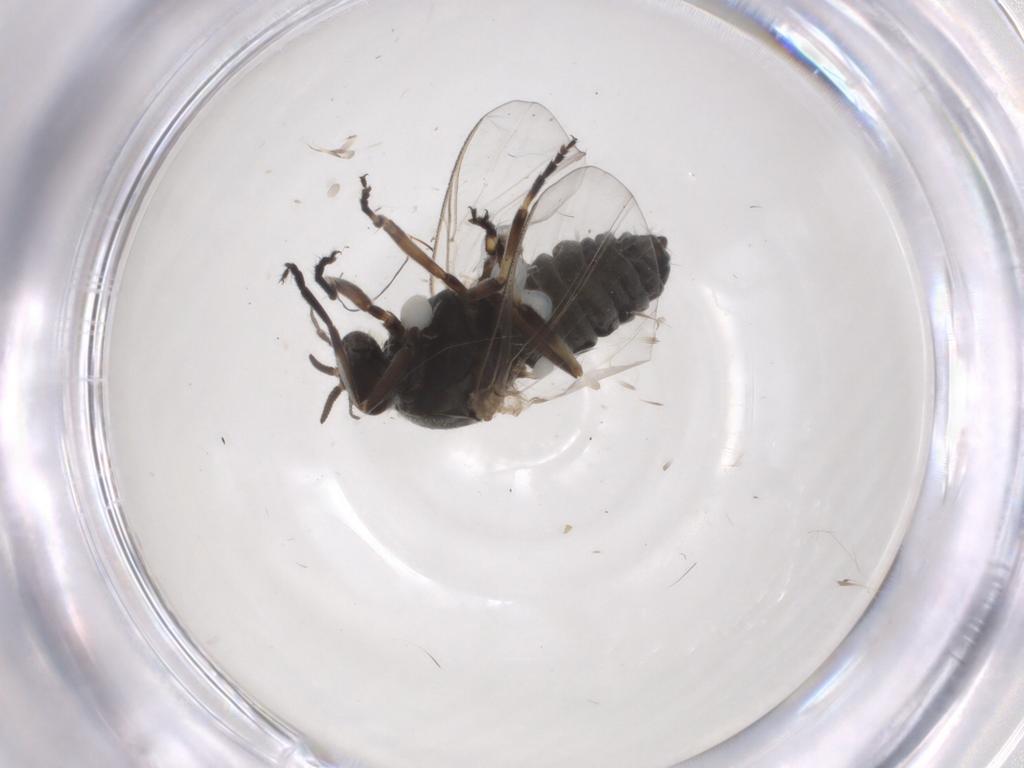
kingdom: Animalia
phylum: Arthropoda
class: Insecta
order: Diptera
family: Simuliidae
